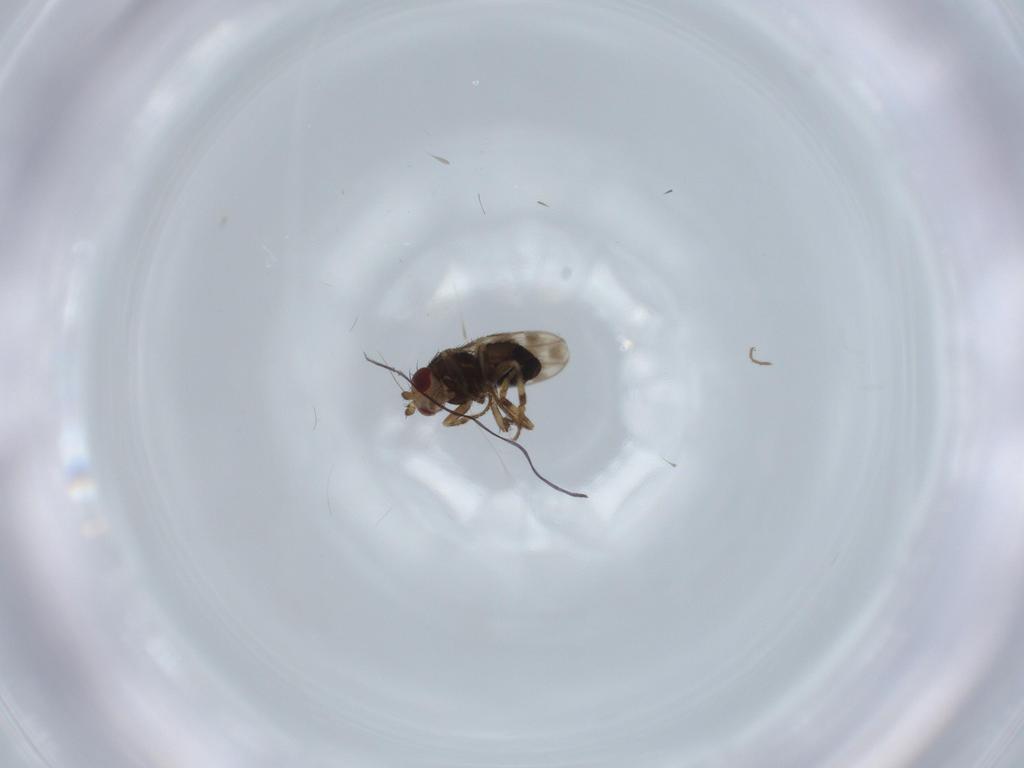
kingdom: Animalia
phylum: Arthropoda
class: Insecta
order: Diptera
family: Sphaeroceridae
